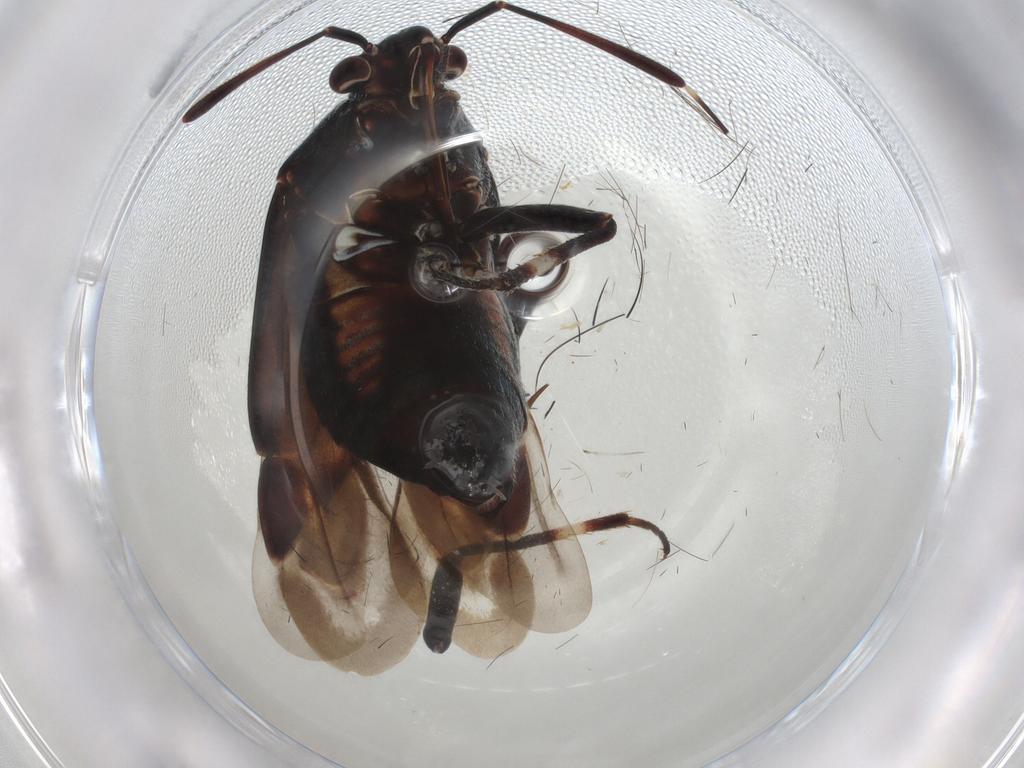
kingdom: Animalia
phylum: Arthropoda
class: Insecta
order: Hemiptera
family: Miridae
